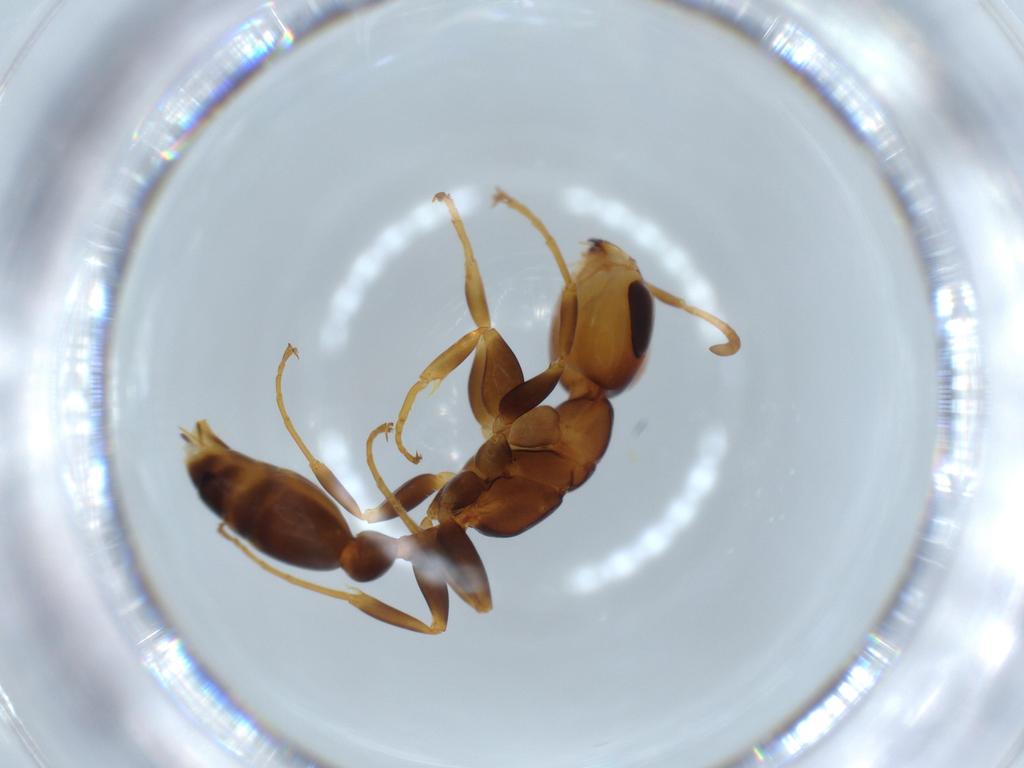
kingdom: Animalia
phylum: Arthropoda
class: Insecta
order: Hymenoptera
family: Formicidae
